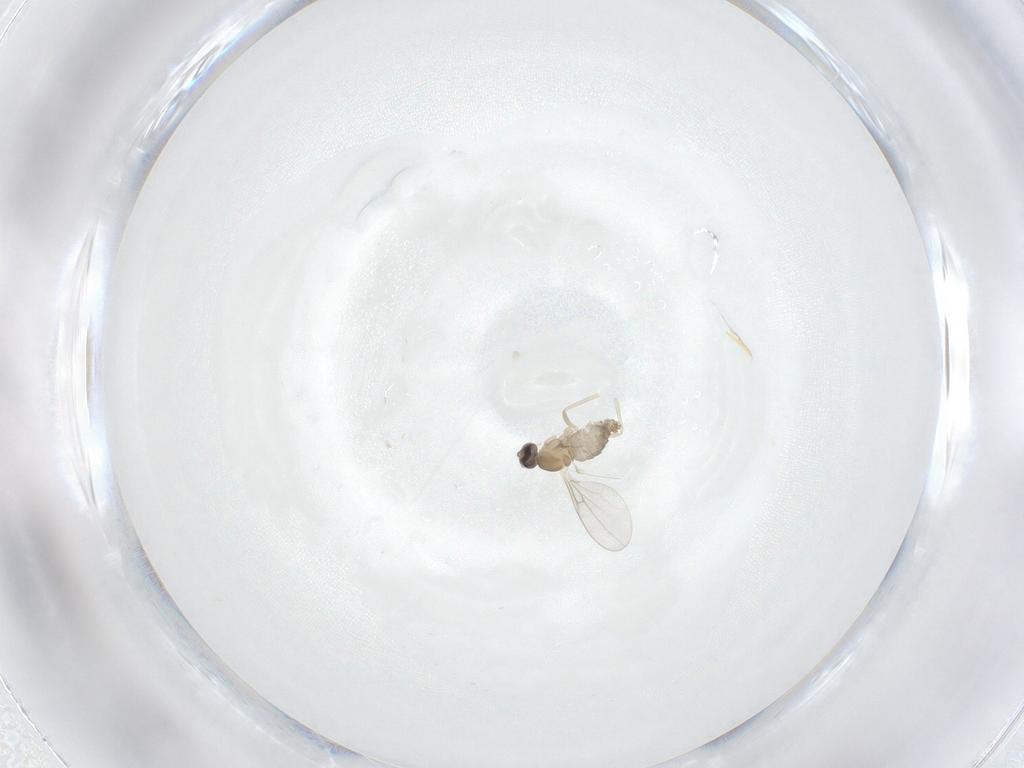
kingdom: Animalia
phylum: Arthropoda
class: Insecta
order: Diptera
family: Cecidomyiidae
